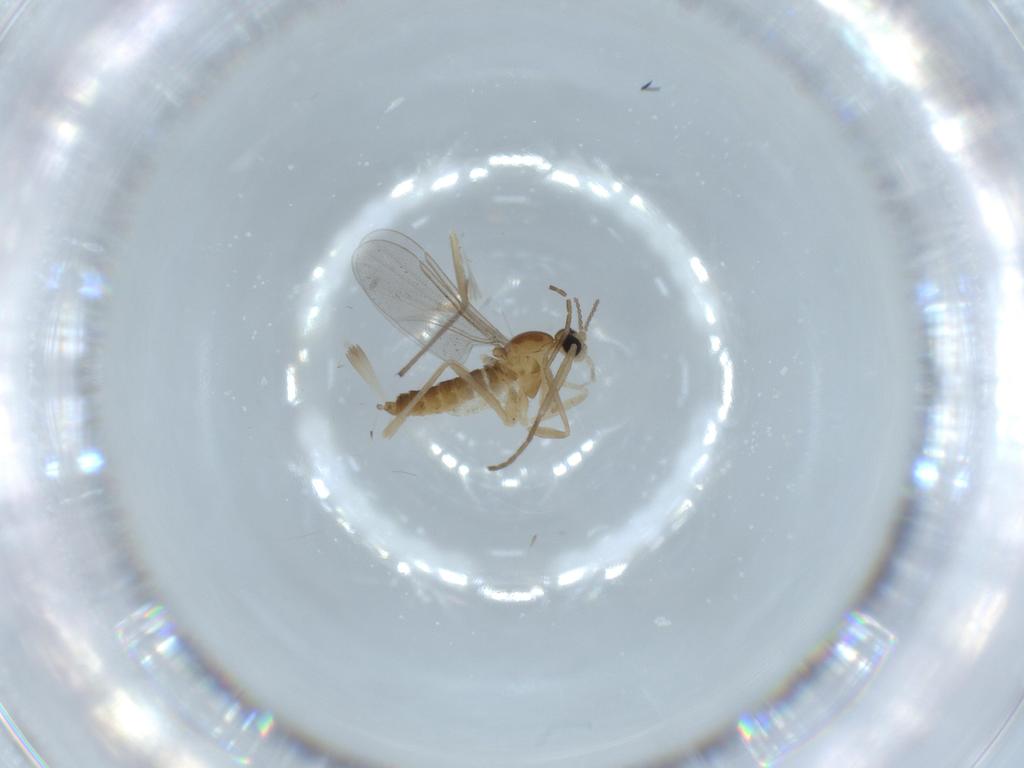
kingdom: Animalia
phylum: Arthropoda
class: Insecta
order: Diptera
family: Cecidomyiidae
